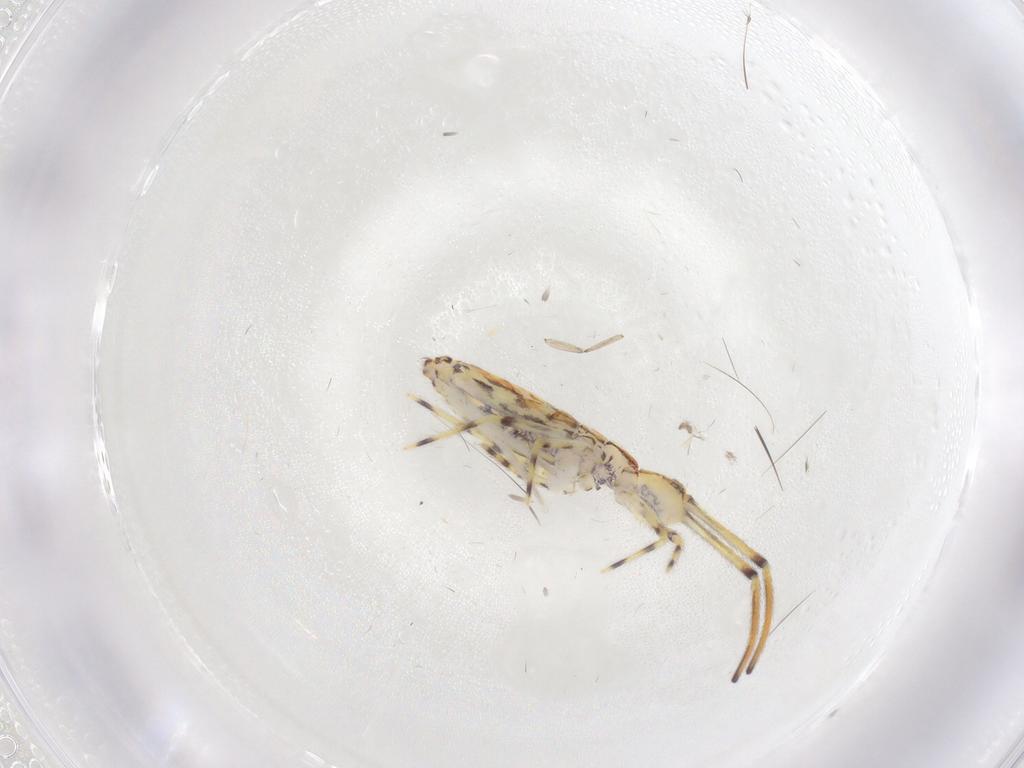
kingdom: Animalia
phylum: Arthropoda
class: Collembola
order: Entomobryomorpha
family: Entomobryidae
